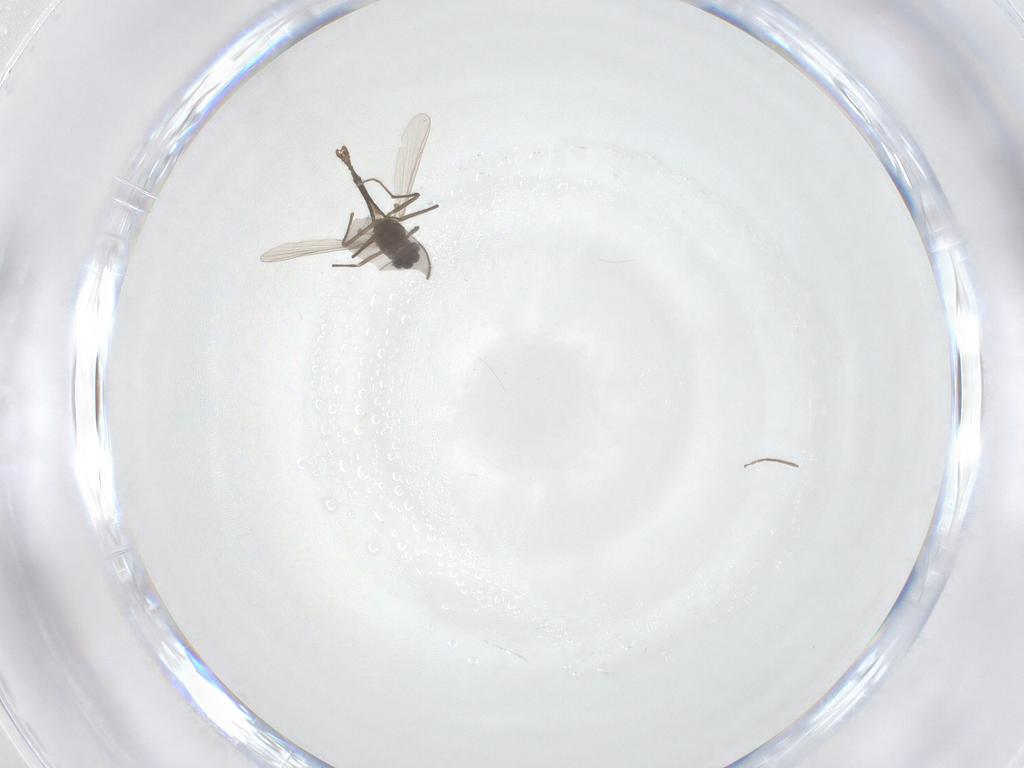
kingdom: Animalia
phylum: Arthropoda
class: Insecta
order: Diptera
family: Chironomidae
